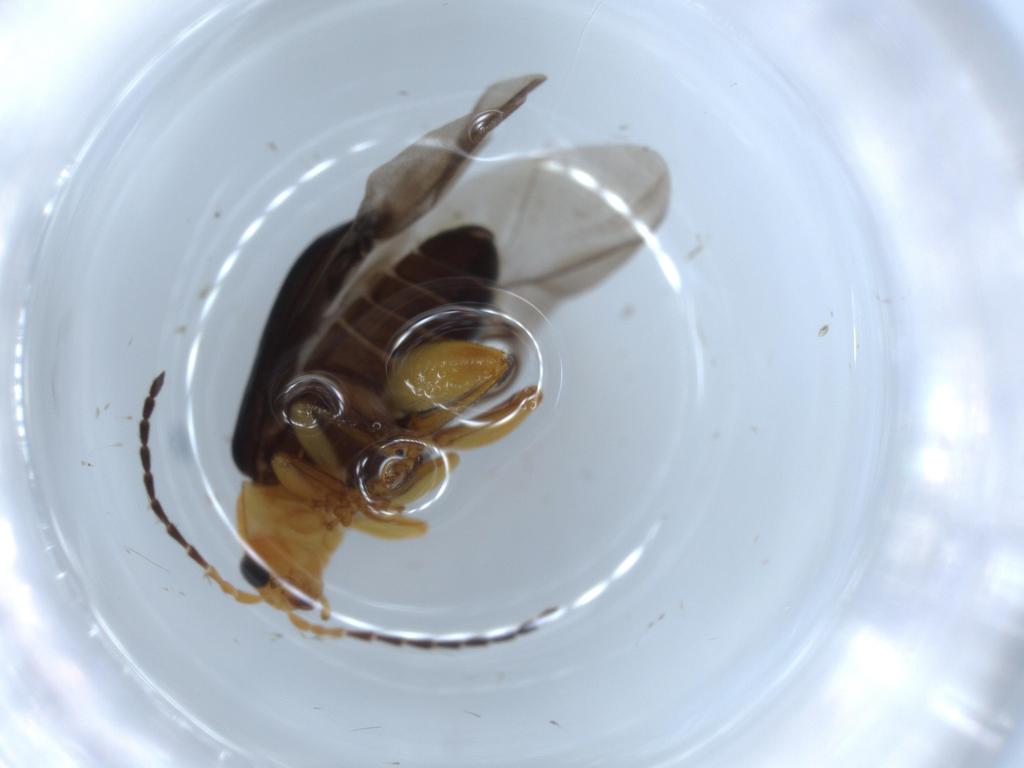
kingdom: Animalia
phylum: Arthropoda
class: Insecta
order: Coleoptera
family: Chrysomelidae
